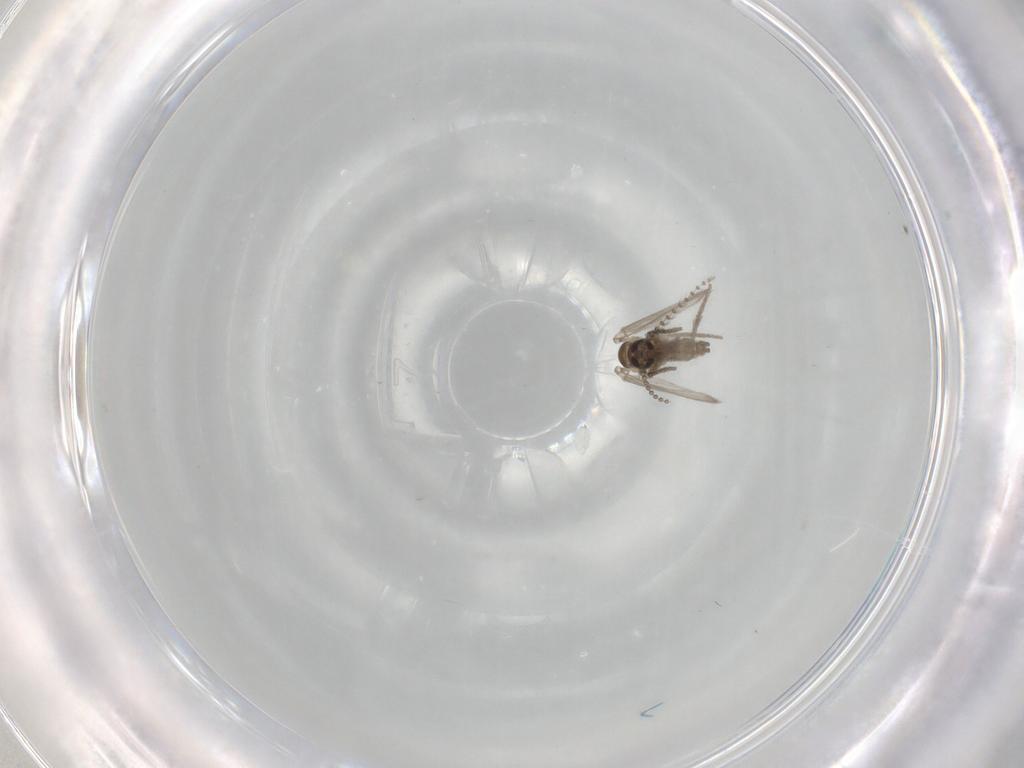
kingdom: Animalia
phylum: Arthropoda
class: Insecta
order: Diptera
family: Psychodidae
